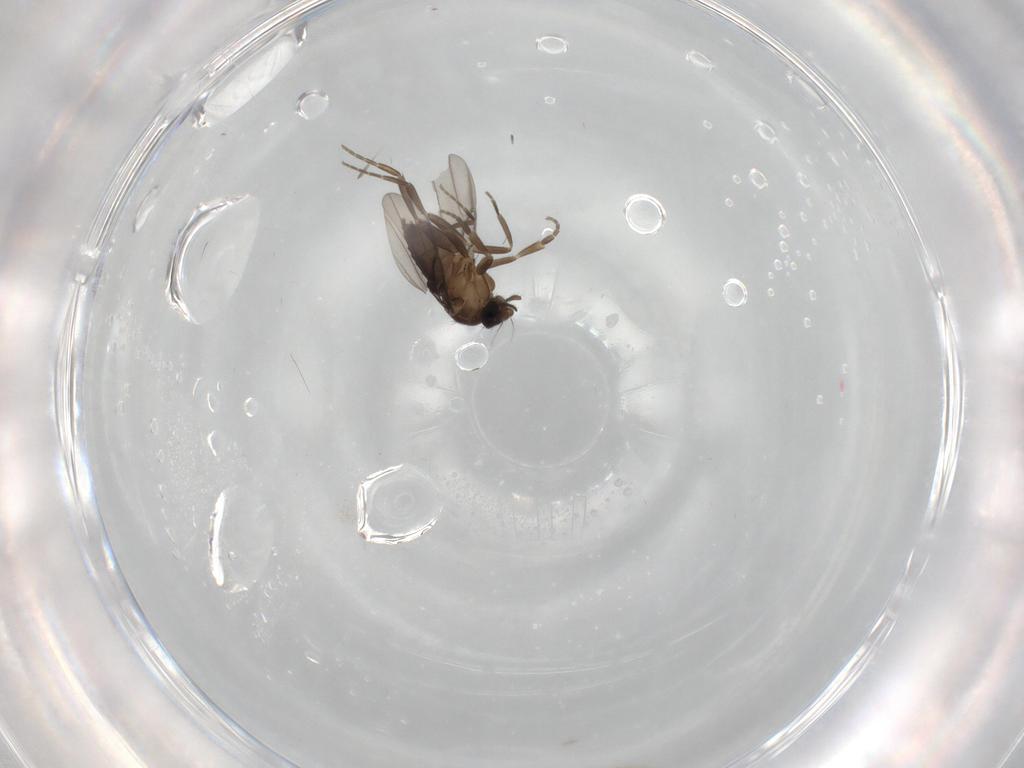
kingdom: Animalia
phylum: Arthropoda
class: Insecta
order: Diptera
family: Phoridae
